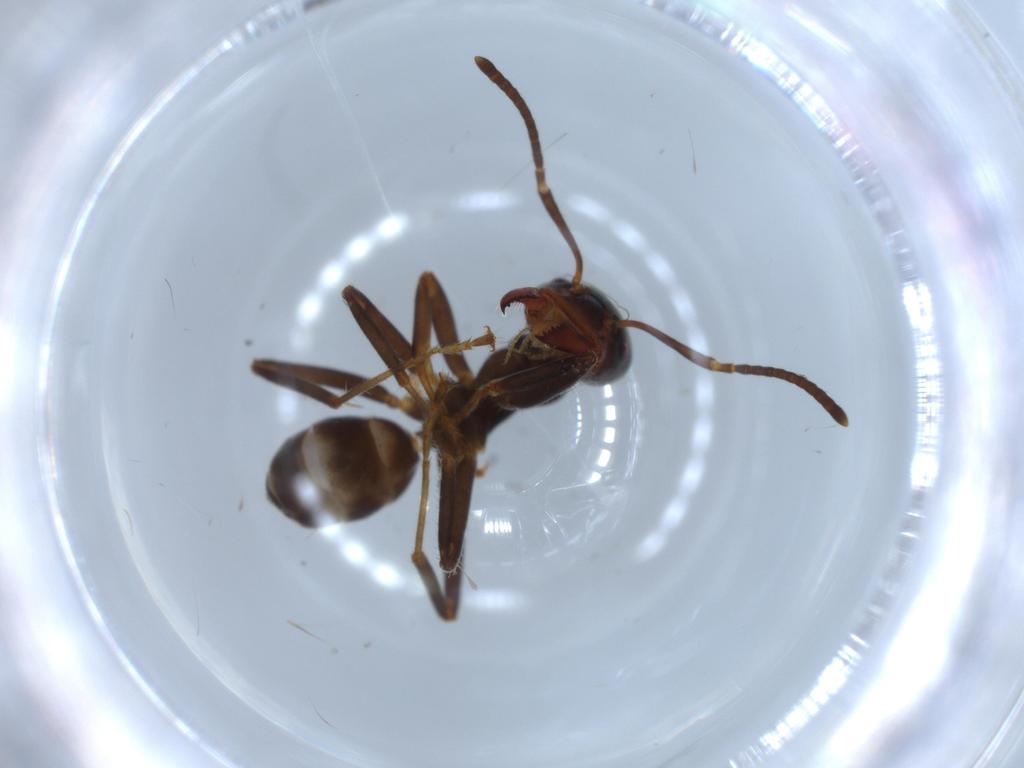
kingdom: Animalia
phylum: Arthropoda
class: Insecta
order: Hymenoptera
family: Formicidae
